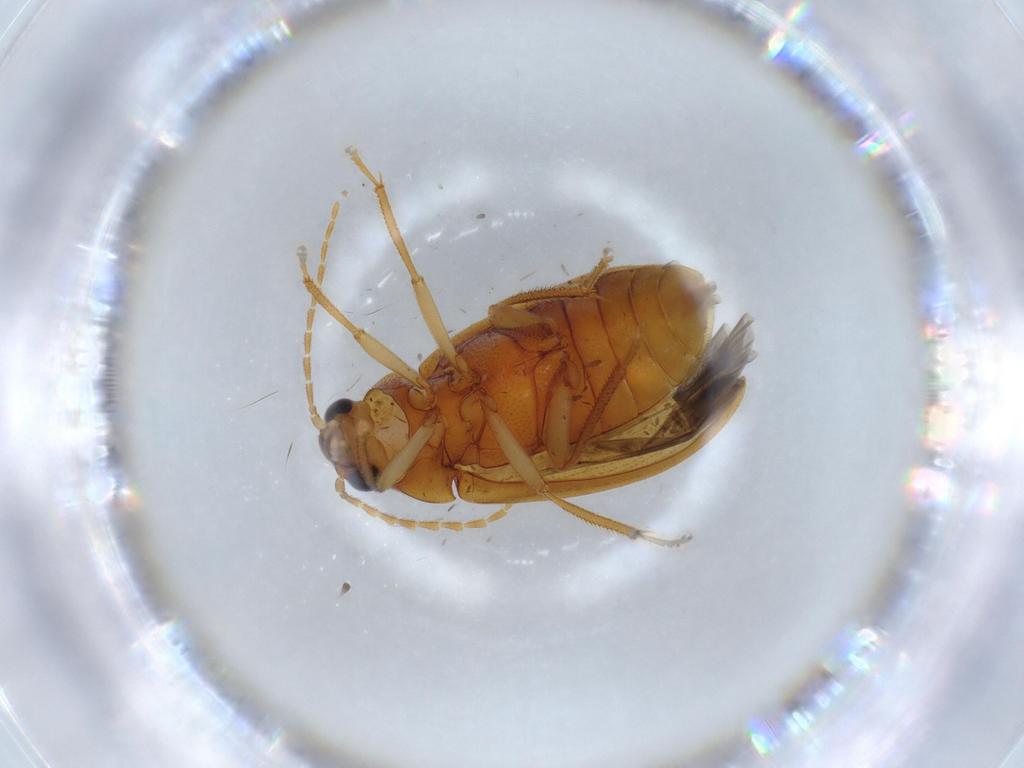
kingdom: Animalia
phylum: Arthropoda
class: Insecta
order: Coleoptera
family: Ptilodactylidae
